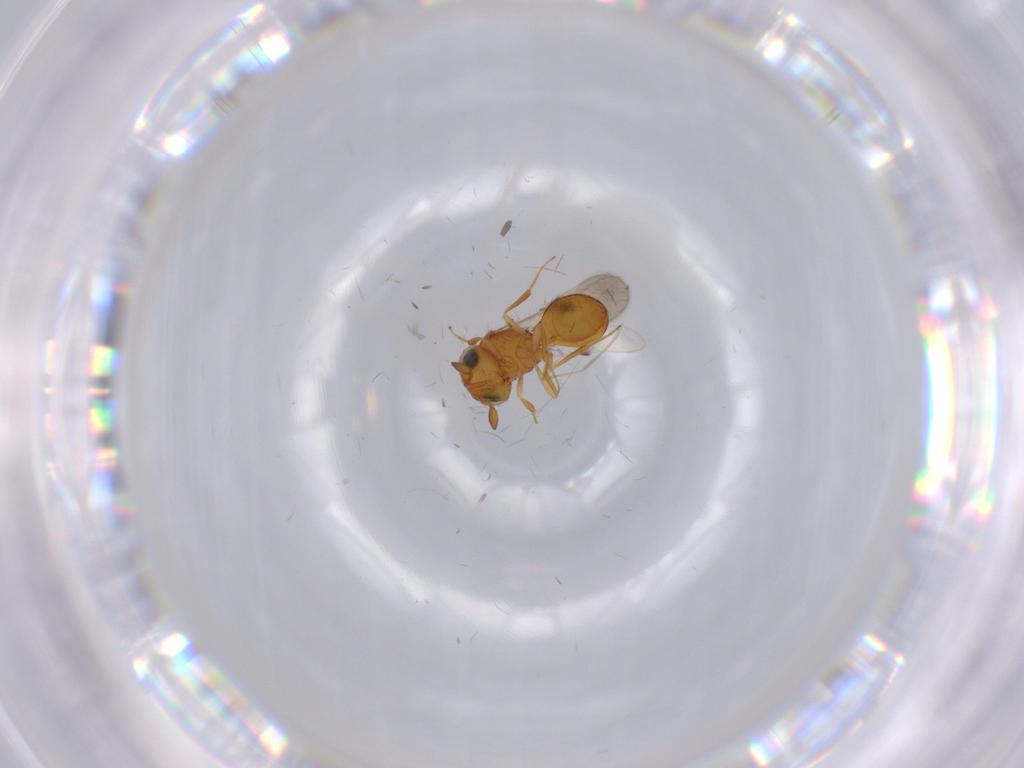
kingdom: Animalia
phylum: Arthropoda
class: Insecta
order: Hymenoptera
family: Scelionidae
